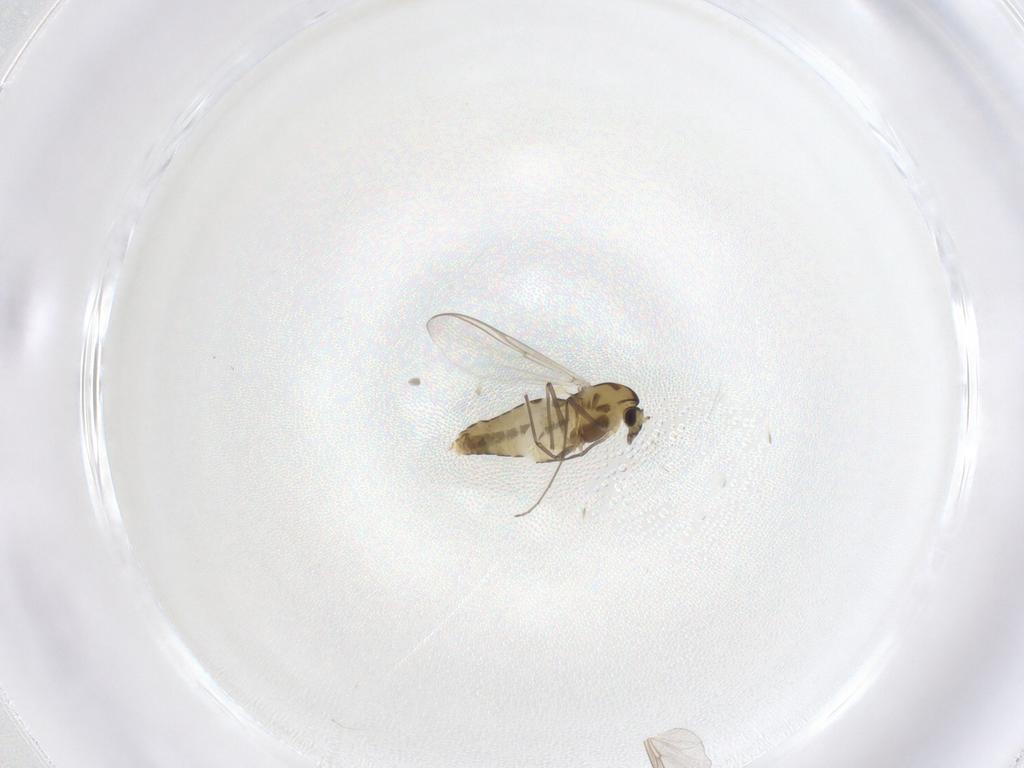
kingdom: Animalia
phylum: Arthropoda
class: Insecta
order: Diptera
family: Chironomidae
